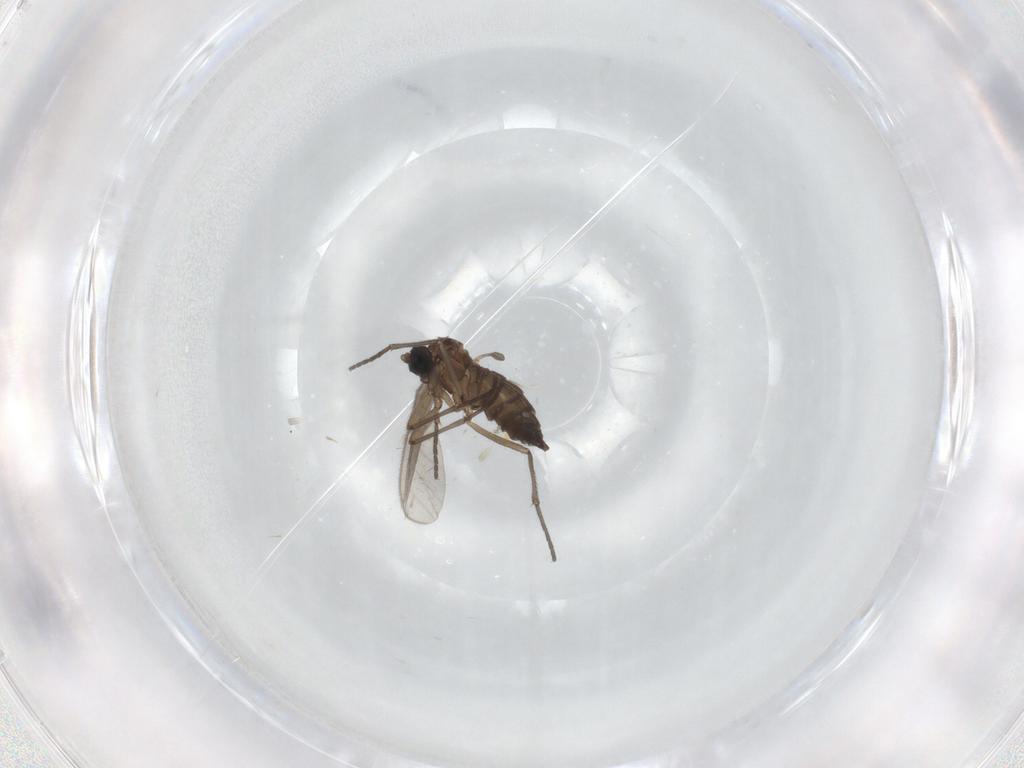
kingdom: Animalia
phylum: Arthropoda
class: Insecta
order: Diptera
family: Sciaridae
